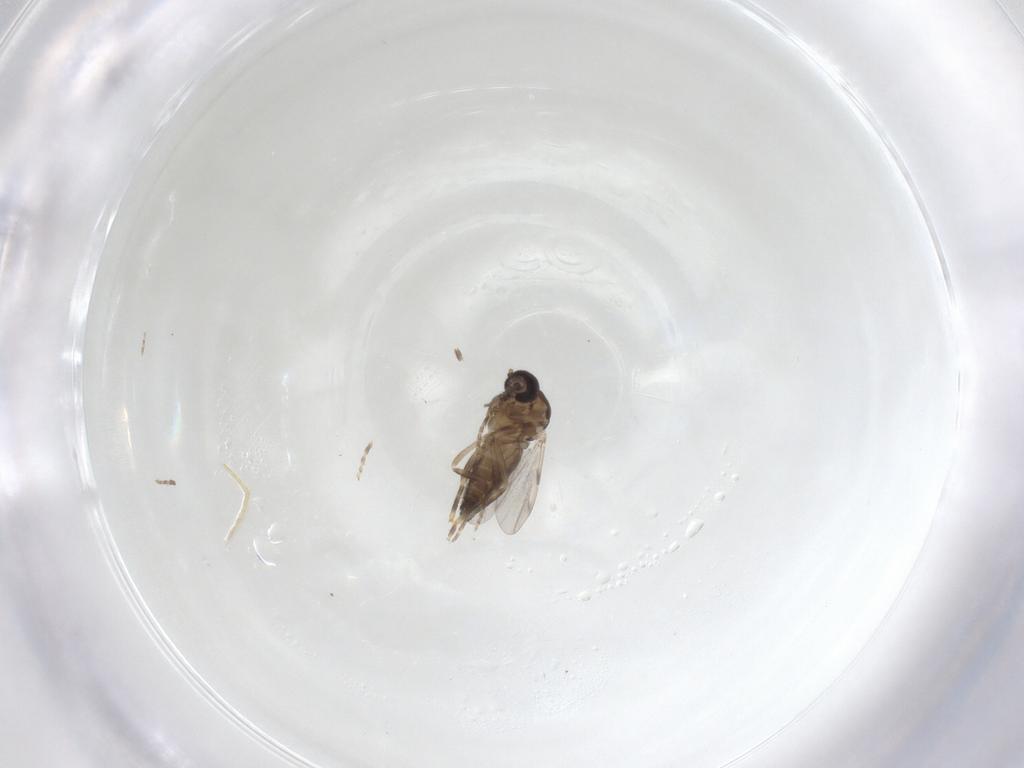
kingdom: Animalia
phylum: Arthropoda
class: Insecta
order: Diptera
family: Ceratopogonidae
